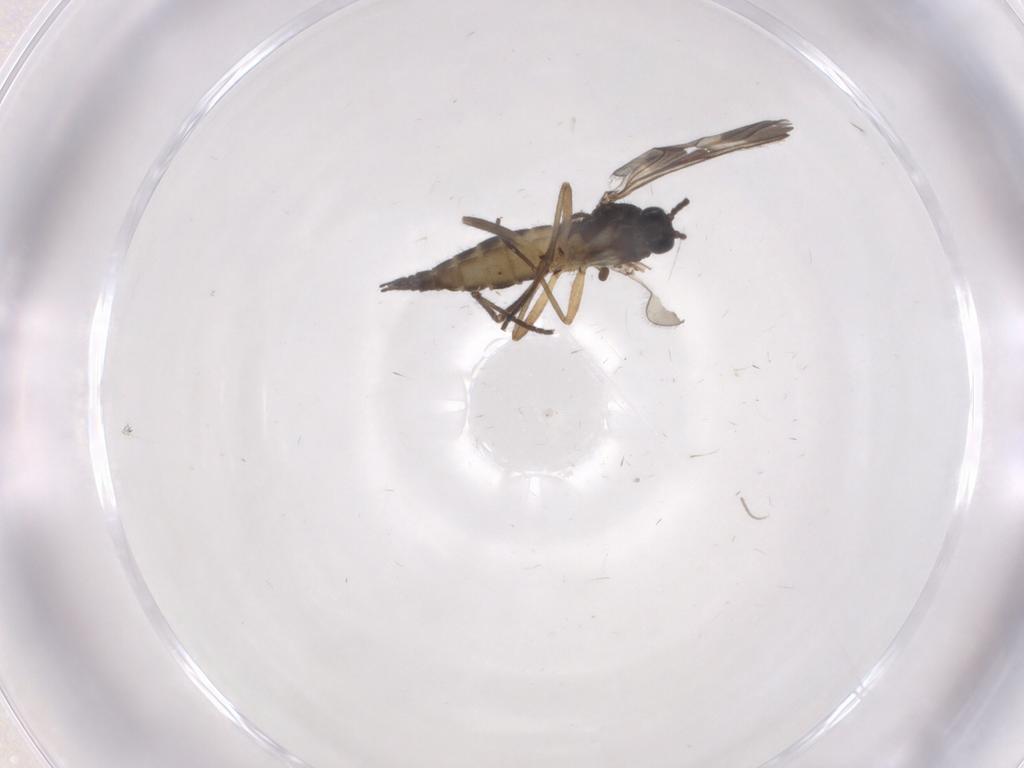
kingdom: Animalia
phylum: Arthropoda
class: Insecta
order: Diptera
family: Sciaridae
